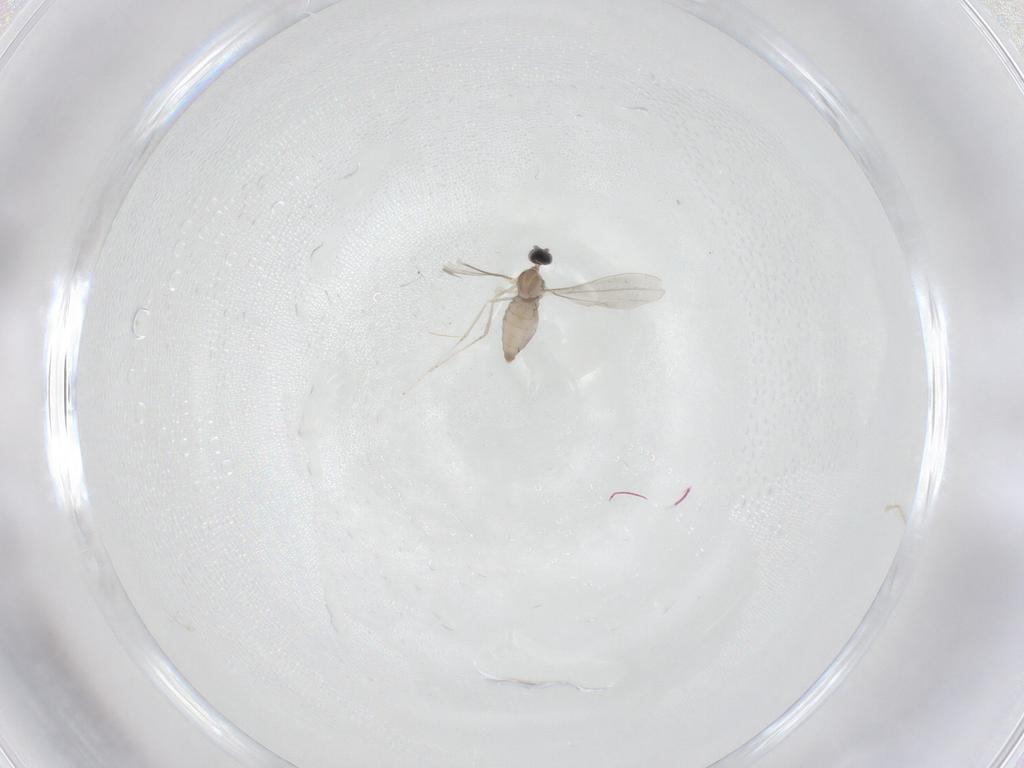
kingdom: Animalia
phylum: Arthropoda
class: Insecta
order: Diptera
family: Cecidomyiidae
